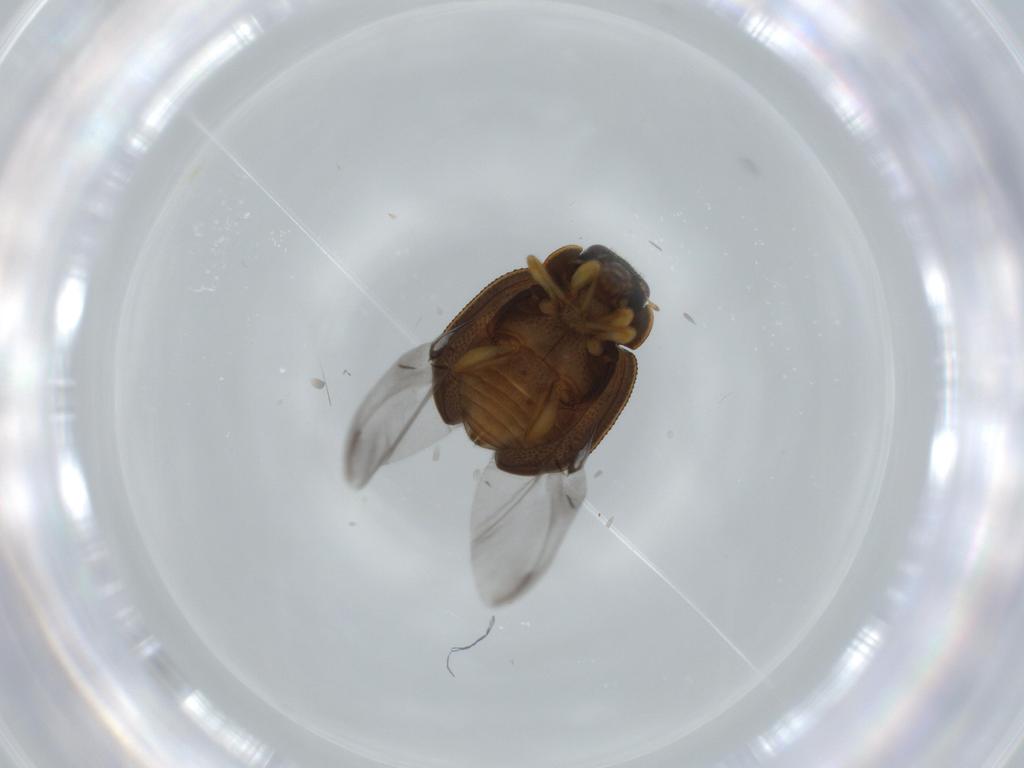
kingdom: Animalia
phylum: Arthropoda
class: Insecta
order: Coleoptera
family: Coccinellidae
